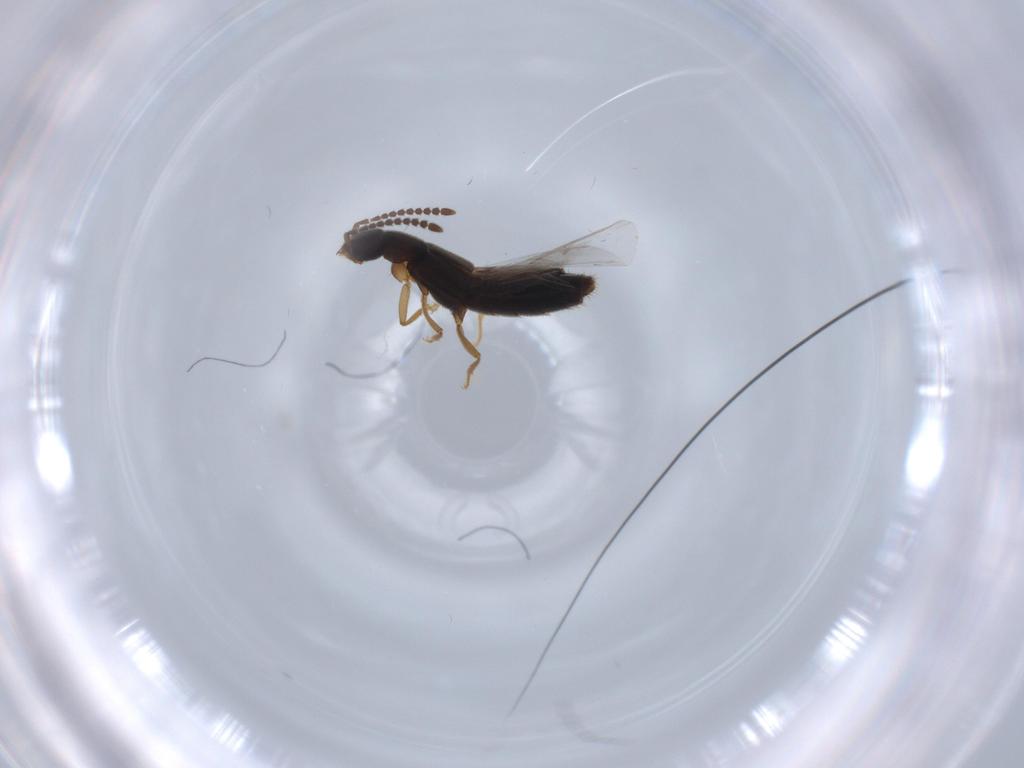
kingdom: Animalia
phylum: Arthropoda
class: Insecta
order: Coleoptera
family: Staphylinidae
